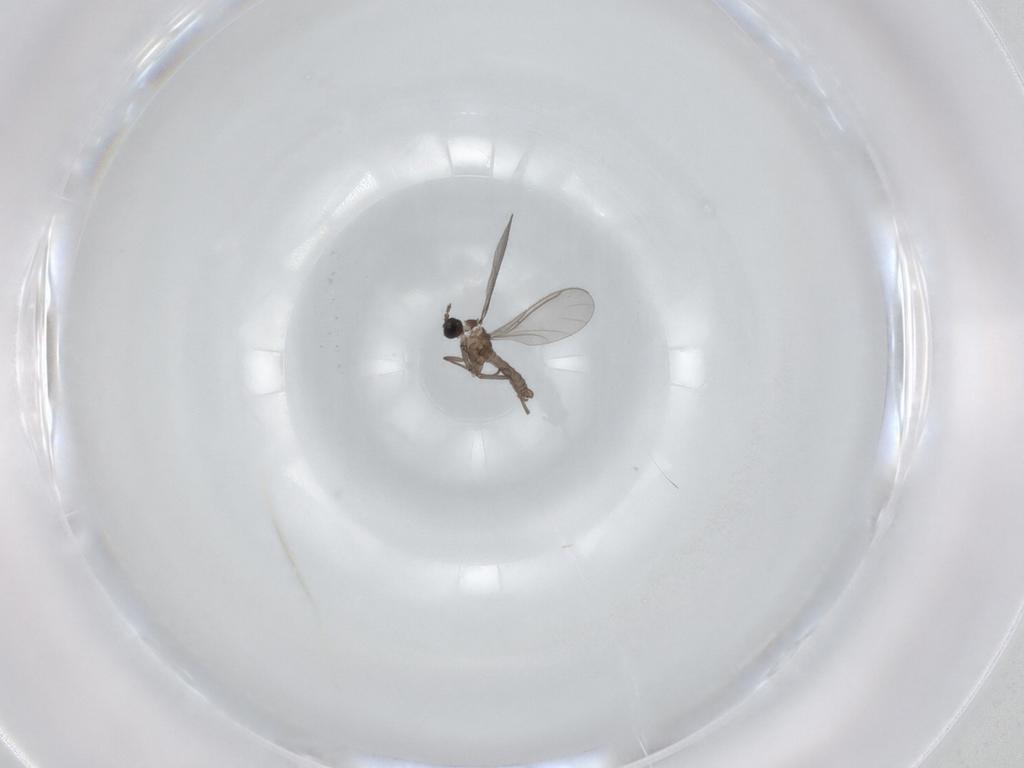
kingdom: Animalia
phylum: Arthropoda
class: Insecta
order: Diptera
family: Sciaridae
